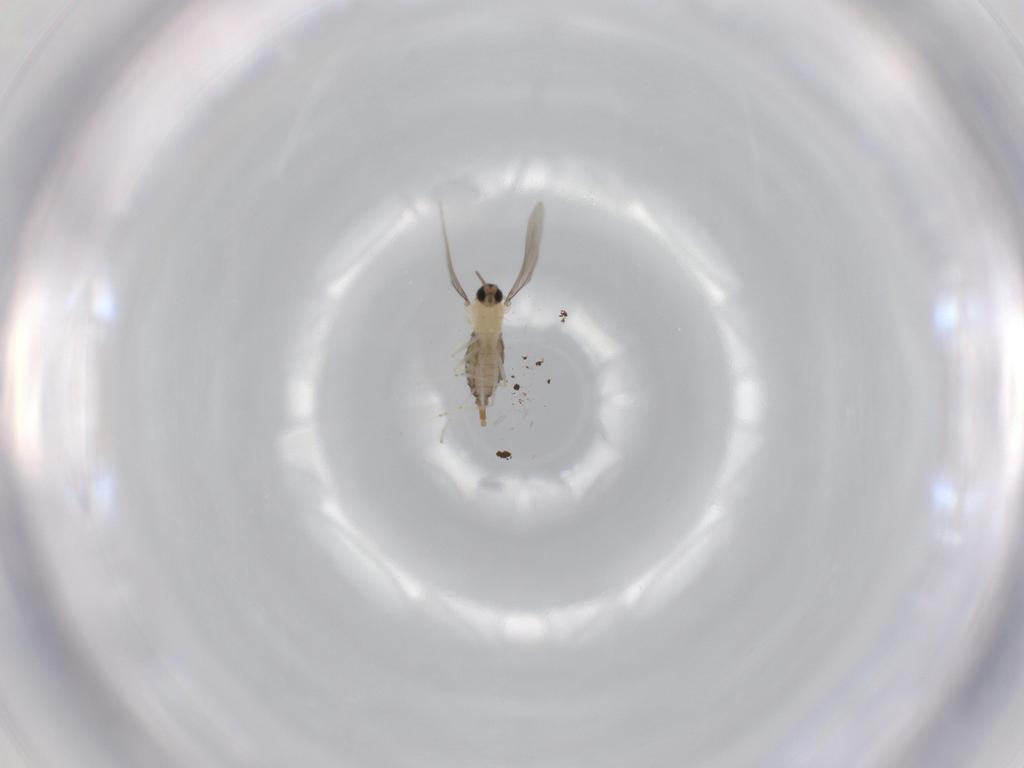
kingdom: Animalia
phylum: Arthropoda
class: Insecta
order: Diptera
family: Cecidomyiidae
